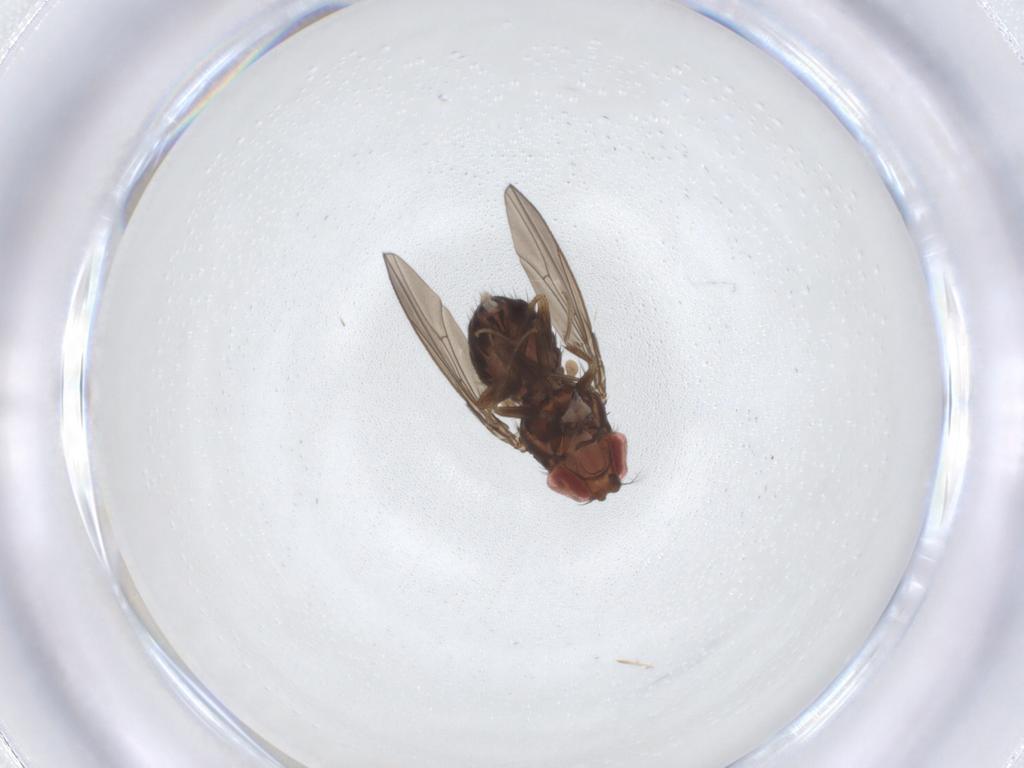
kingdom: Animalia
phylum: Arthropoda
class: Insecta
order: Diptera
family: Drosophilidae
